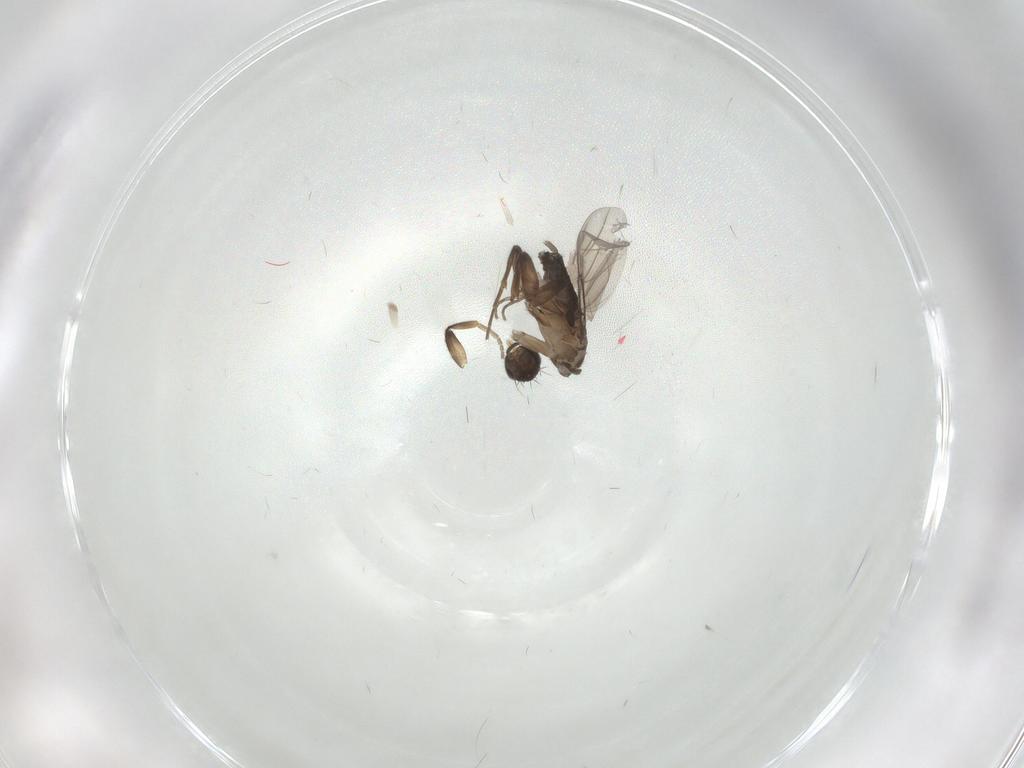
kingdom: Animalia
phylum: Arthropoda
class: Insecta
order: Diptera
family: Phoridae
